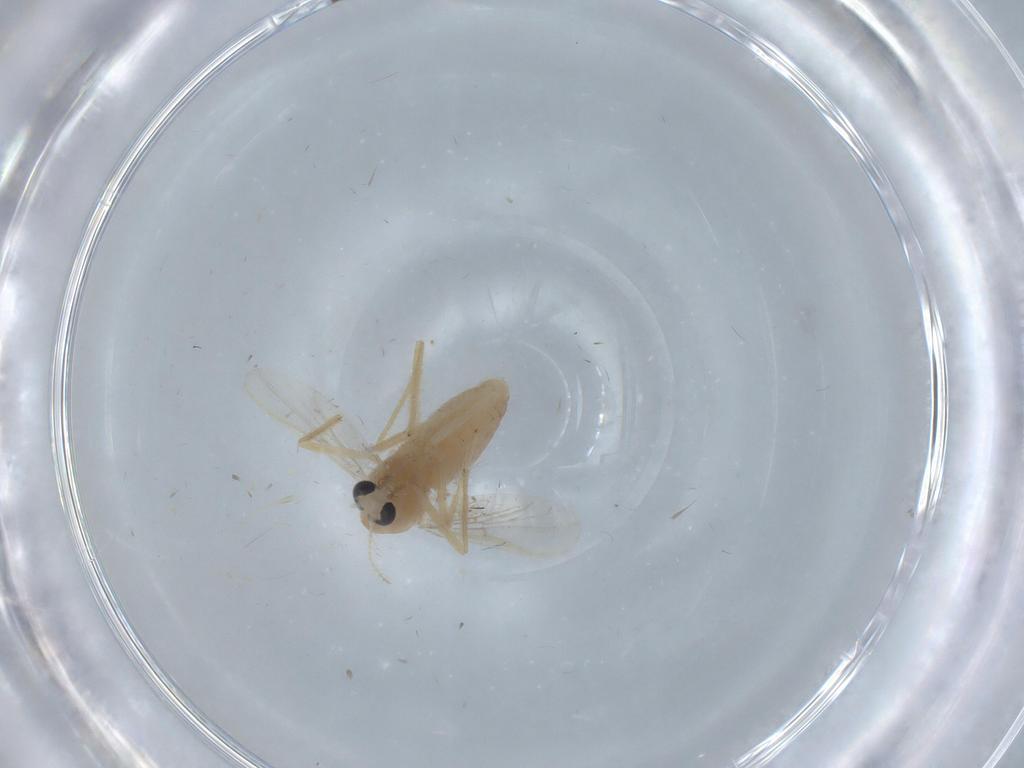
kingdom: Animalia
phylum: Arthropoda
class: Insecta
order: Diptera
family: Chironomidae
